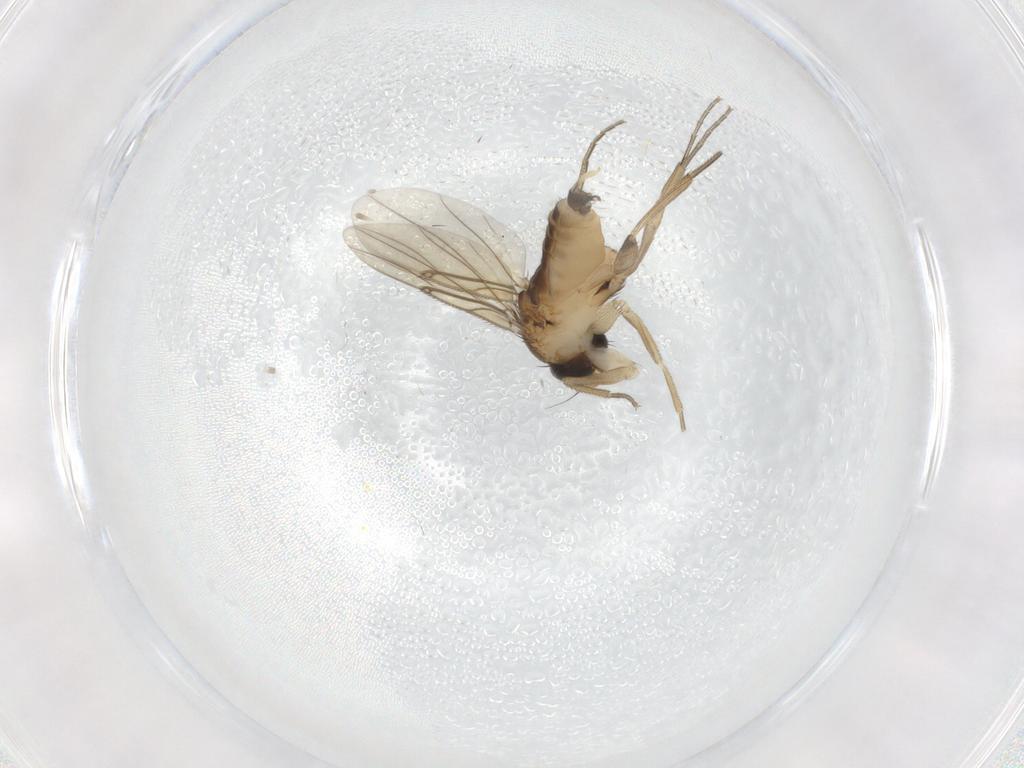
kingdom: Animalia
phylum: Arthropoda
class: Insecta
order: Diptera
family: Phoridae
